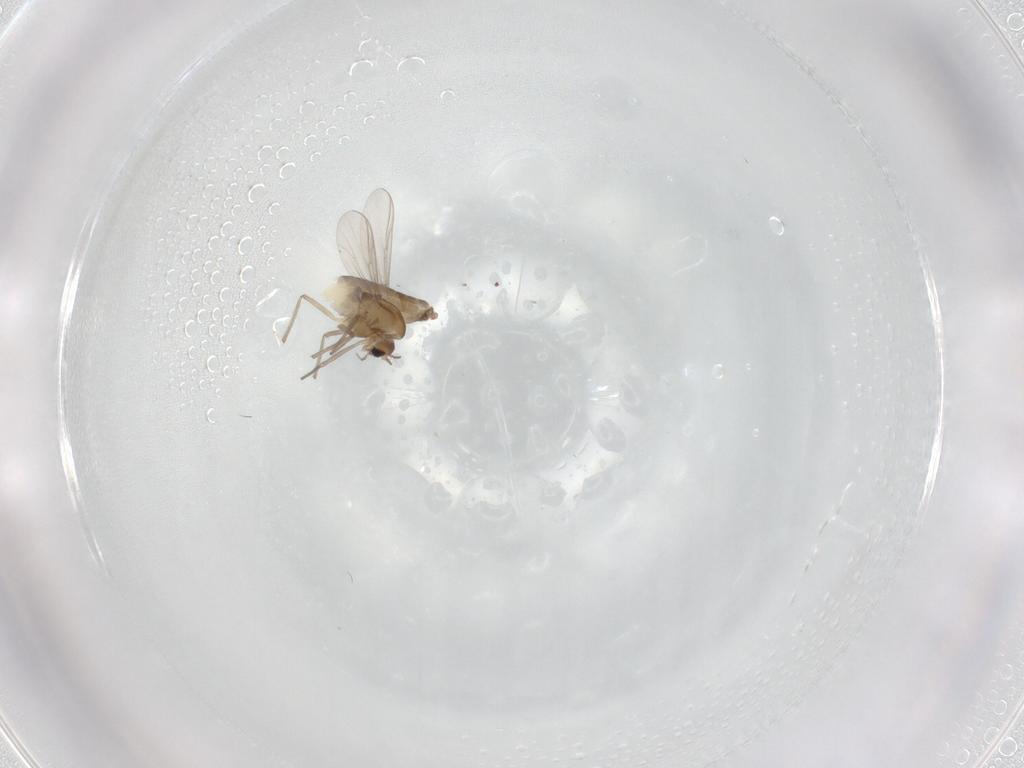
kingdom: Animalia
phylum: Arthropoda
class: Insecta
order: Diptera
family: Chironomidae
